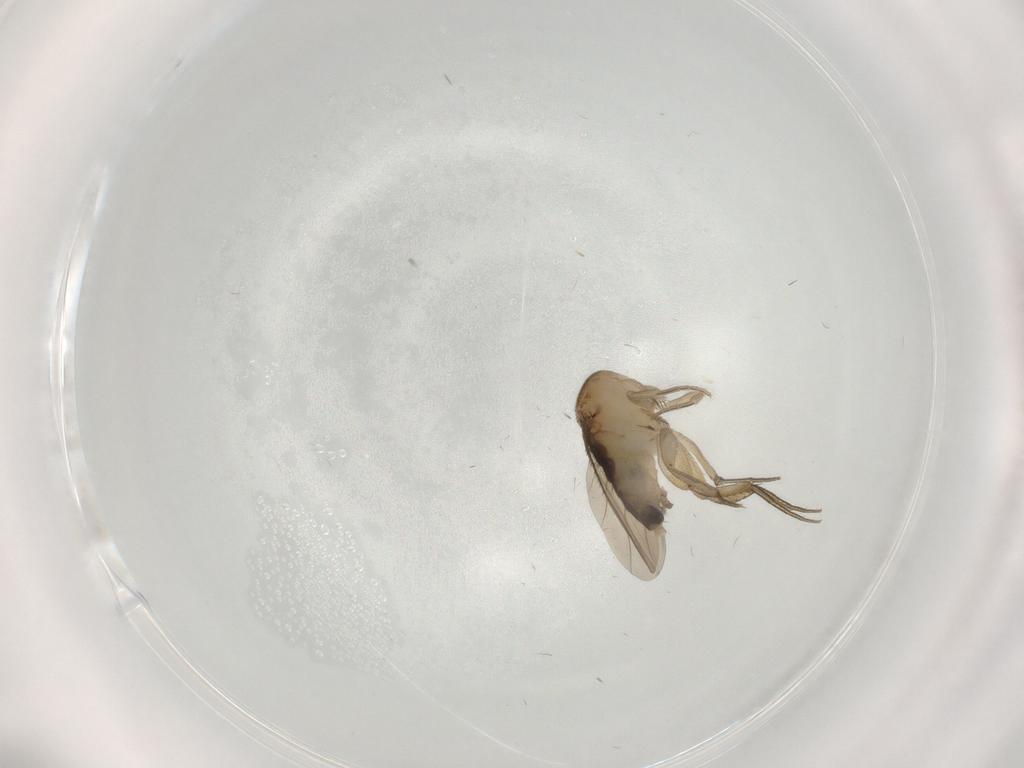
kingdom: Animalia
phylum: Arthropoda
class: Insecta
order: Diptera
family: Phoridae
